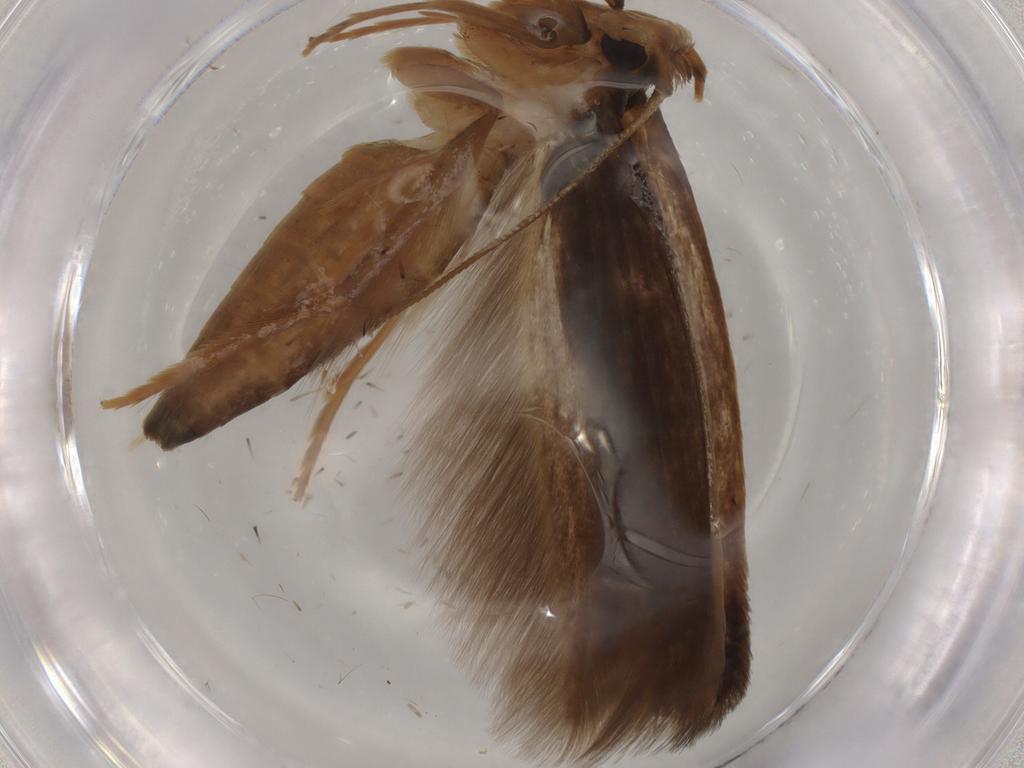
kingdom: Animalia
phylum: Arthropoda
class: Insecta
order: Lepidoptera
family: Gelechiidae
